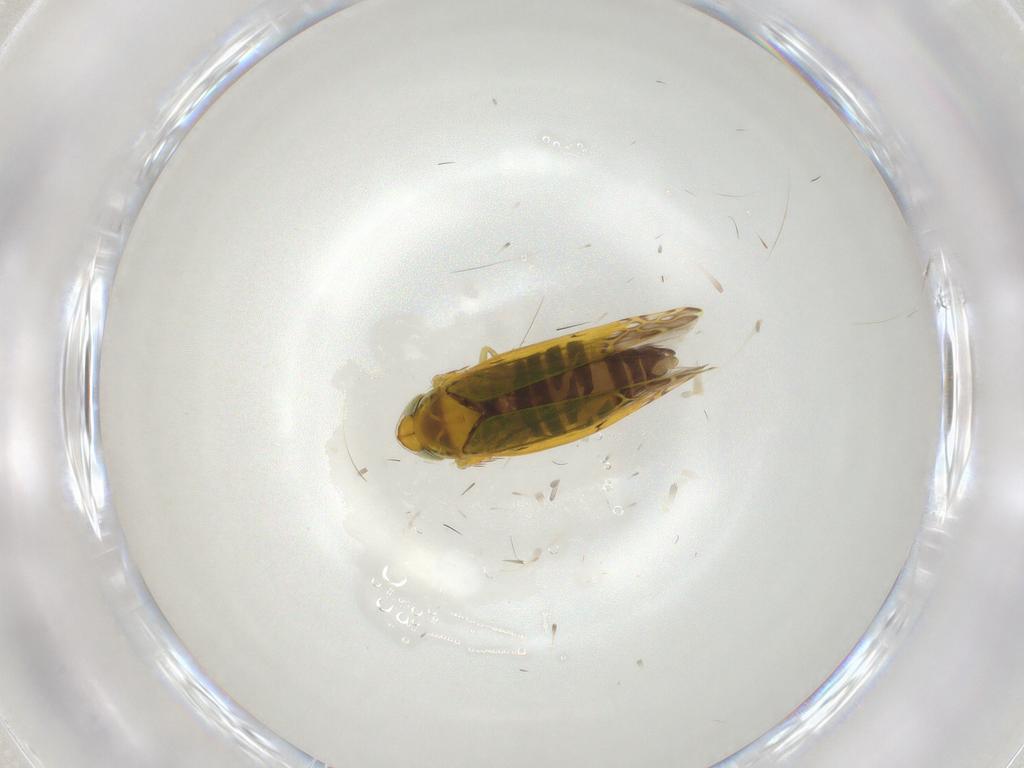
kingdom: Animalia
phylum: Arthropoda
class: Insecta
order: Hemiptera
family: Cicadellidae
